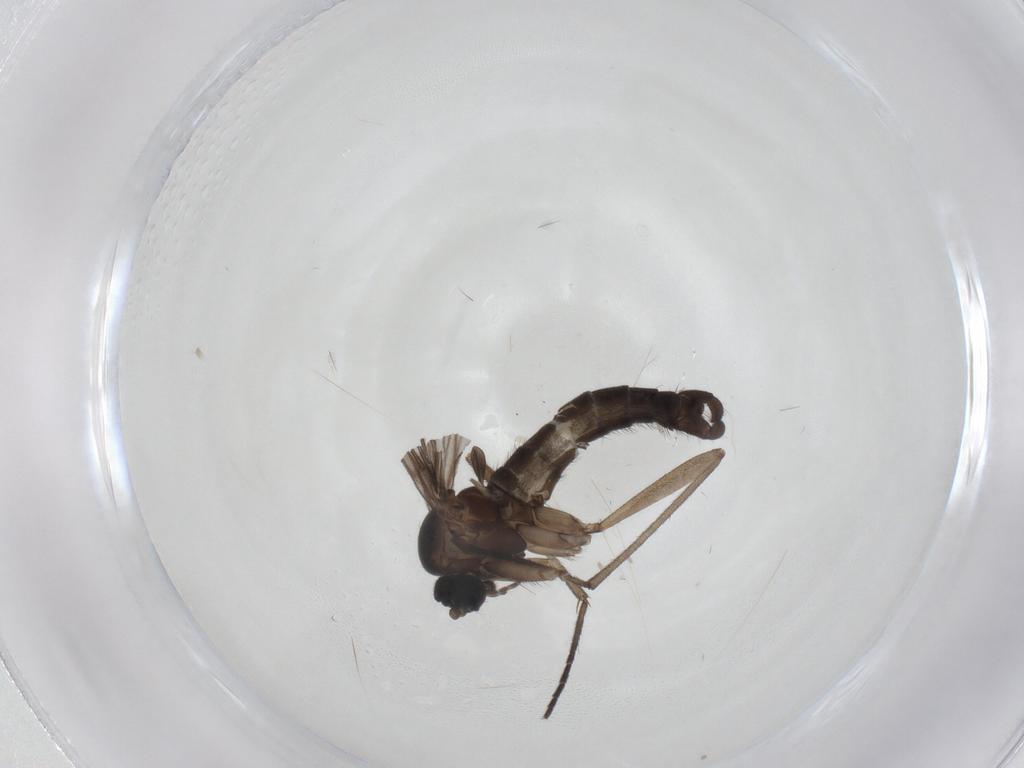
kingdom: Animalia
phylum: Arthropoda
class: Insecta
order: Diptera
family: Sciaridae
